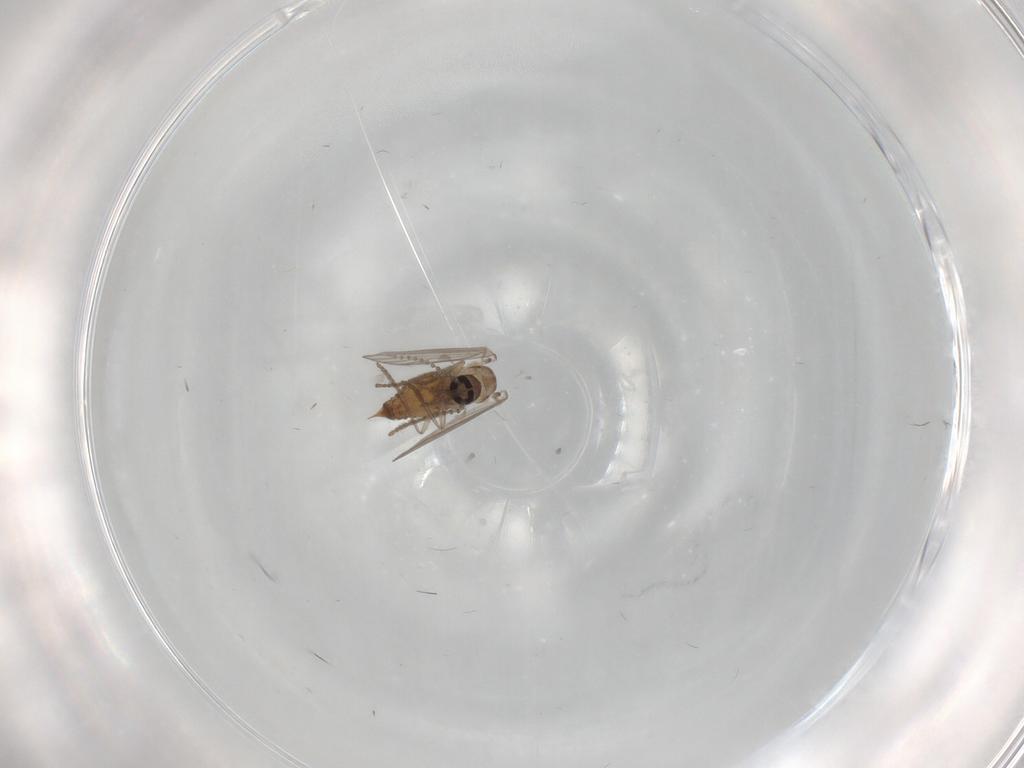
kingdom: Animalia
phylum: Arthropoda
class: Insecta
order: Diptera
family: Psychodidae
